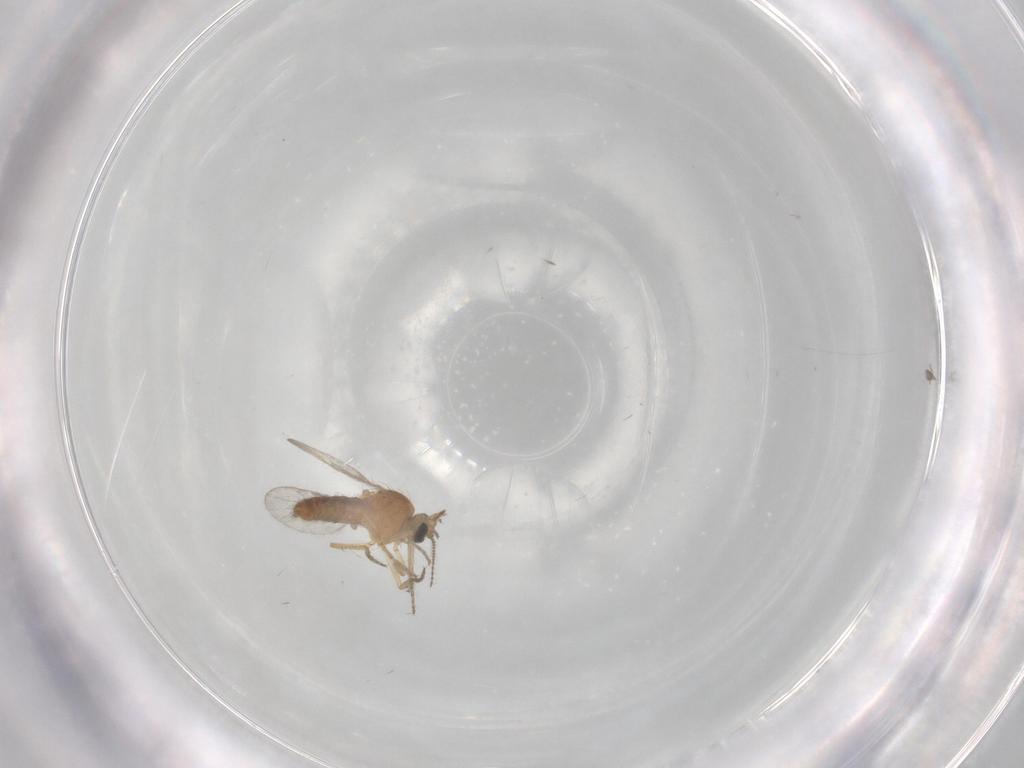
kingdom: Animalia
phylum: Arthropoda
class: Insecta
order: Diptera
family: Ceratopogonidae
